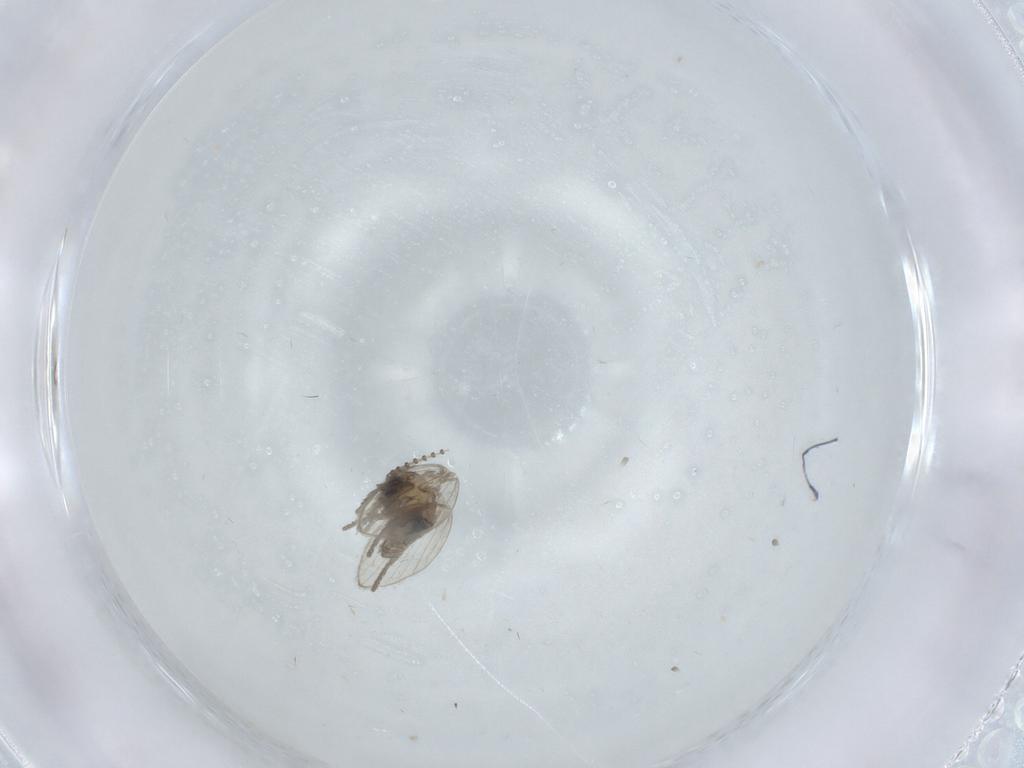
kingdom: Animalia
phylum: Arthropoda
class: Insecta
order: Diptera
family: Psychodidae
